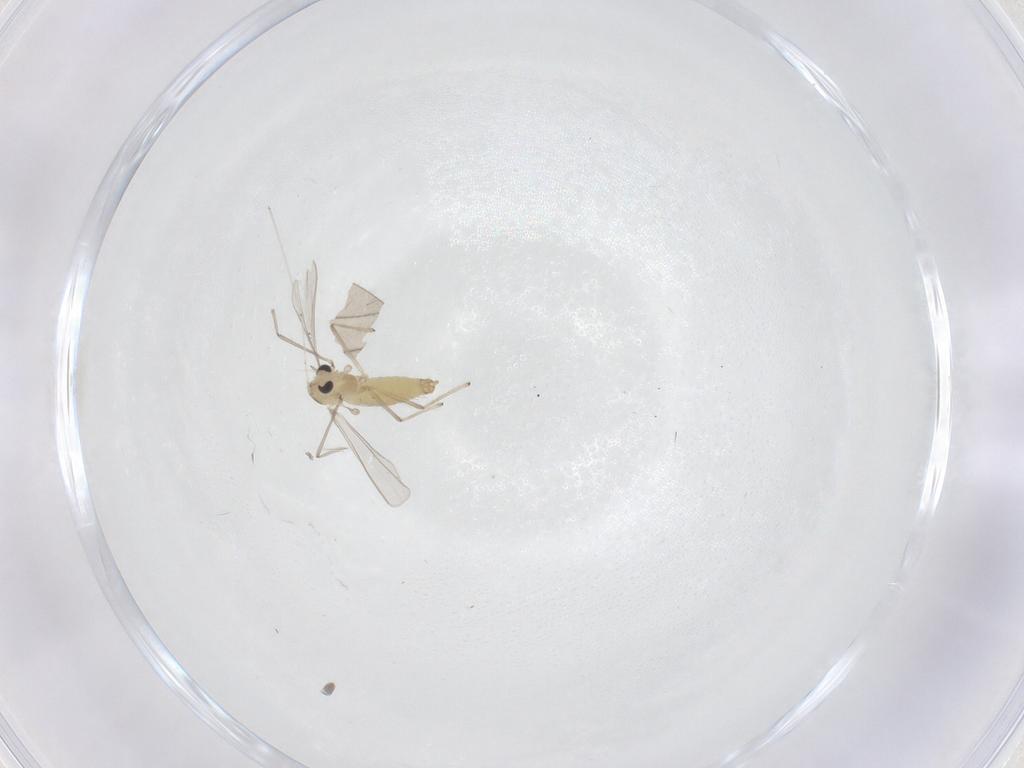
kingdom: Animalia
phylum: Arthropoda
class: Insecta
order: Diptera
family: Chironomidae
